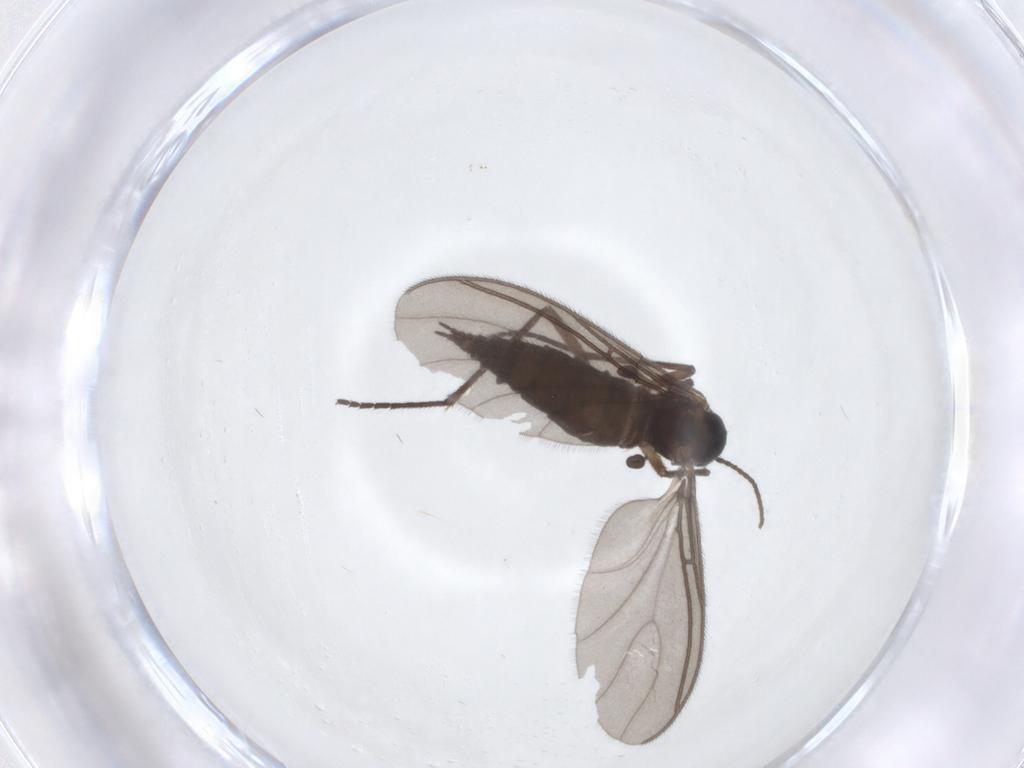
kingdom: Animalia
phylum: Arthropoda
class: Insecta
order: Diptera
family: Sciaridae
